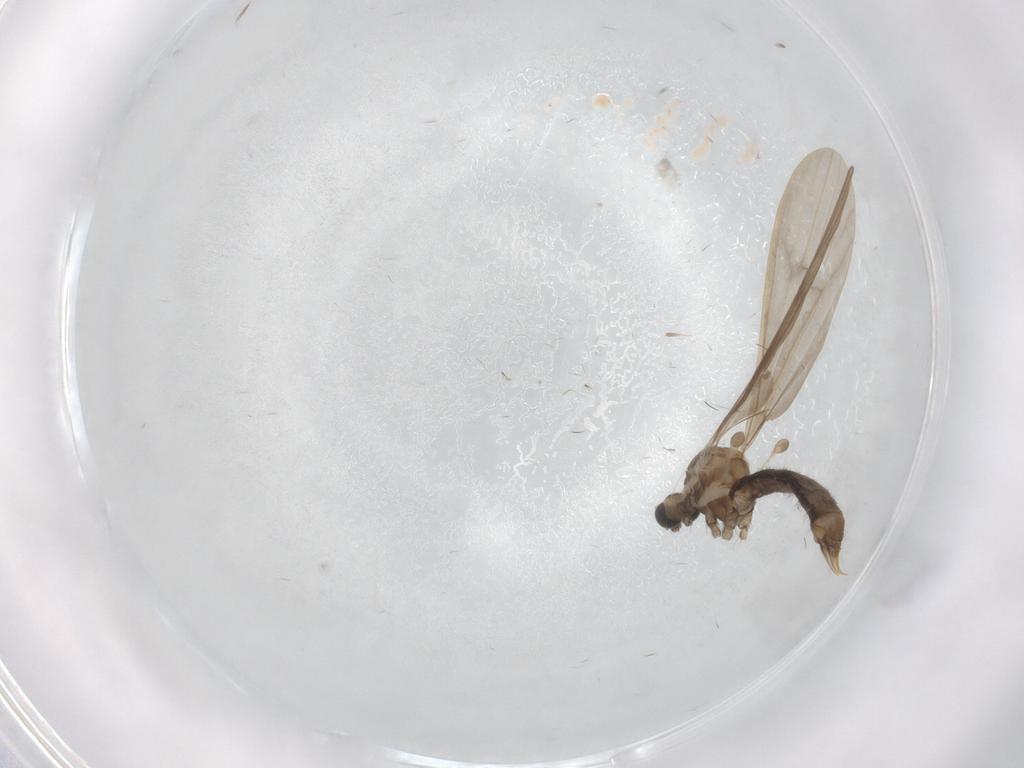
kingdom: Animalia
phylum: Arthropoda
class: Insecta
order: Diptera
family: Limoniidae
